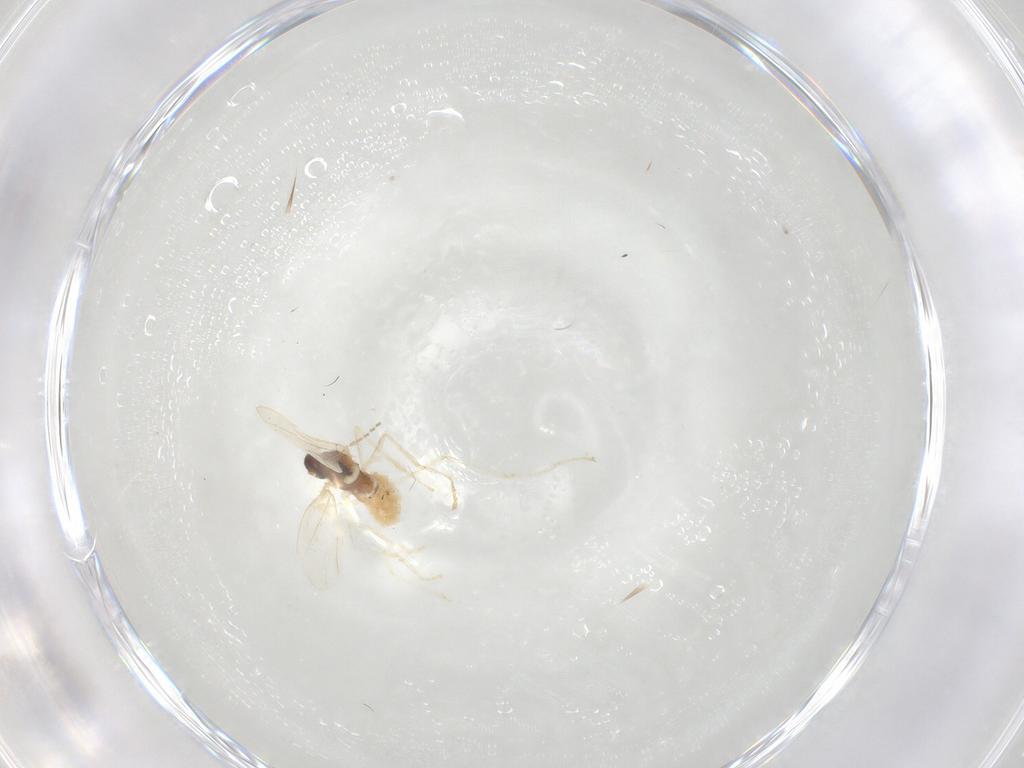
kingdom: Animalia
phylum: Arthropoda
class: Insecta
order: Diptera
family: Cecidomyiidae
